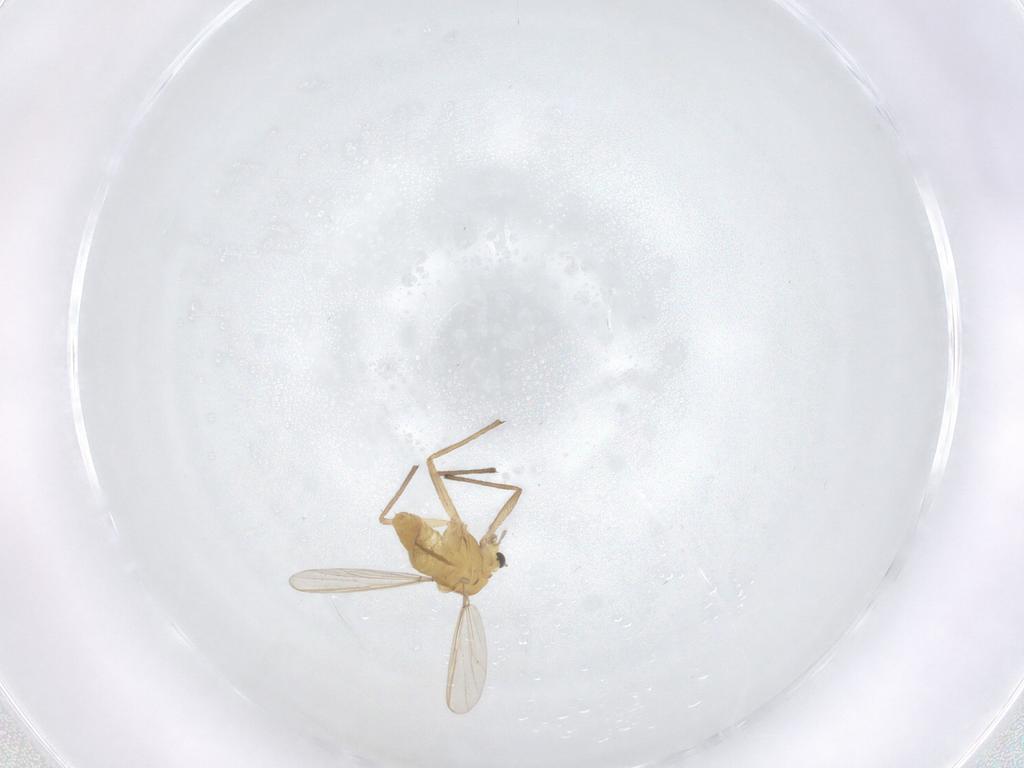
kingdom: Animalia
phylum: Arthropoda
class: Insecta
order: Diptera
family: Chironomidae
